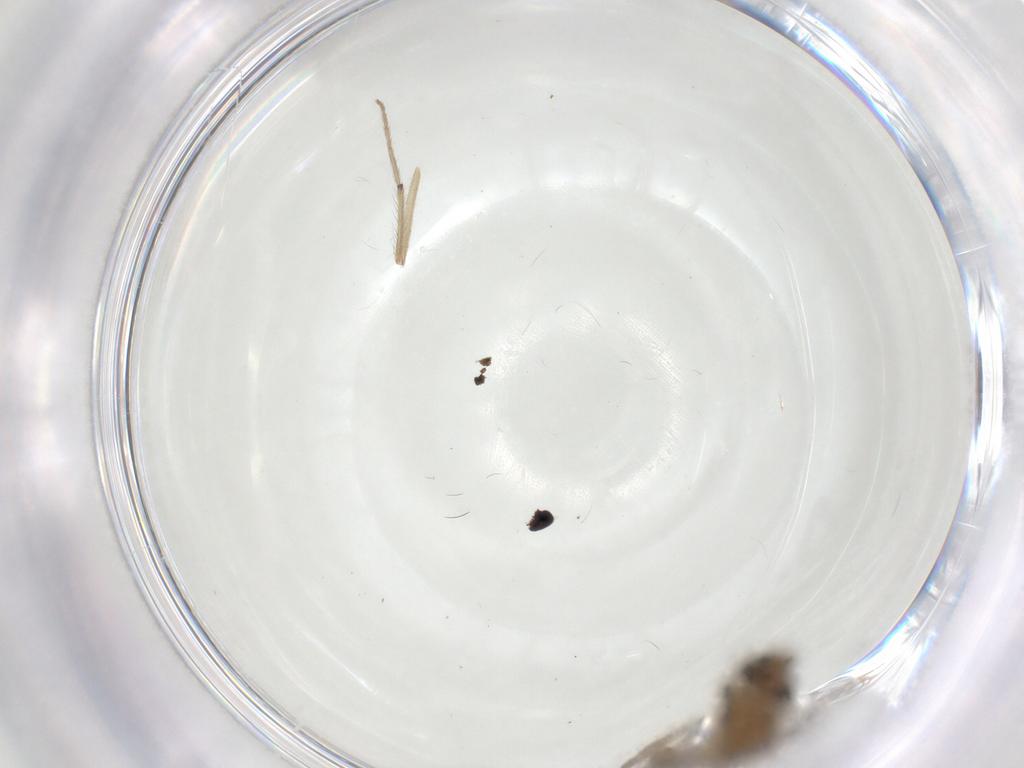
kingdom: Animalia
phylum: Arthropoda
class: Insecta
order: Diptera
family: Chironomidae
